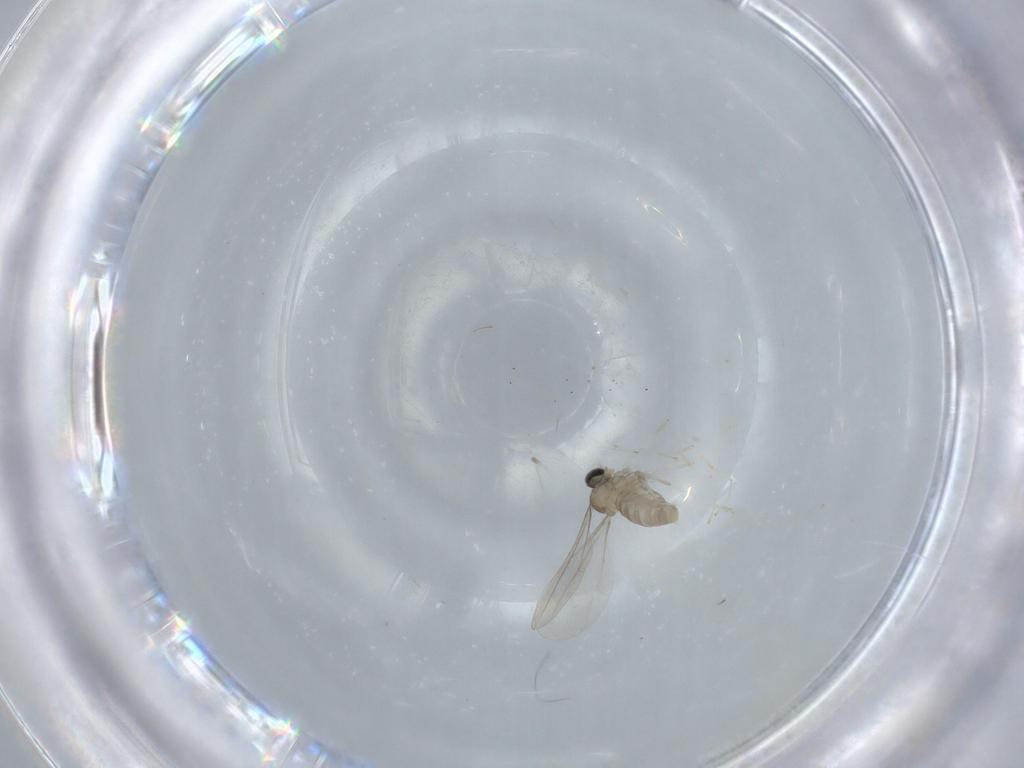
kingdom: Animalia
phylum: Arthropoda
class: Insecta
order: Diptera
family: Cecidomyiidae
